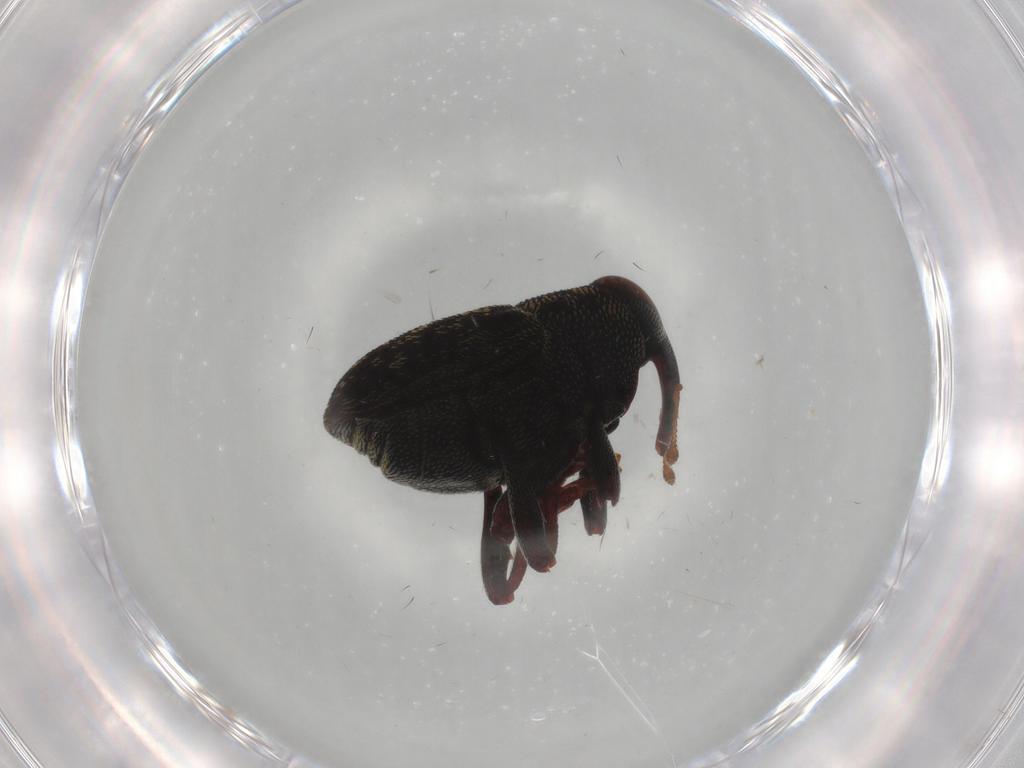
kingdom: Animalia
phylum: Arthropoda
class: Insecta
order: Coleoptera
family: Curculionidae
